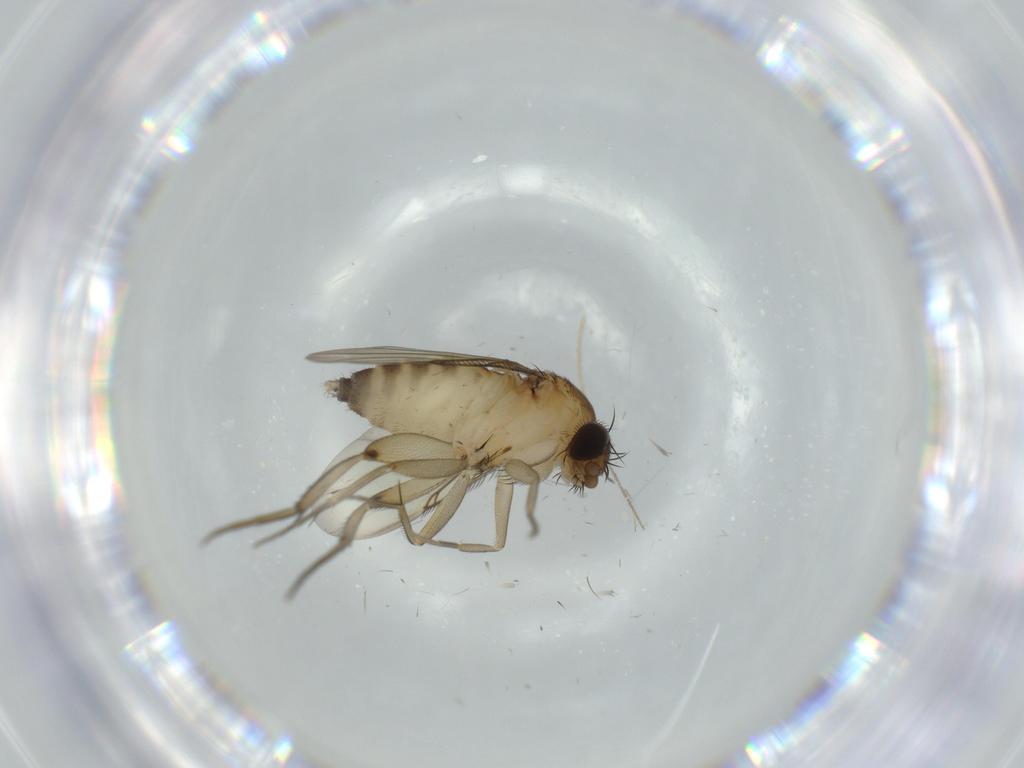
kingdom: Animalia
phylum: Arthropoda
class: Insecta
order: Diptera
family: Phoridae
